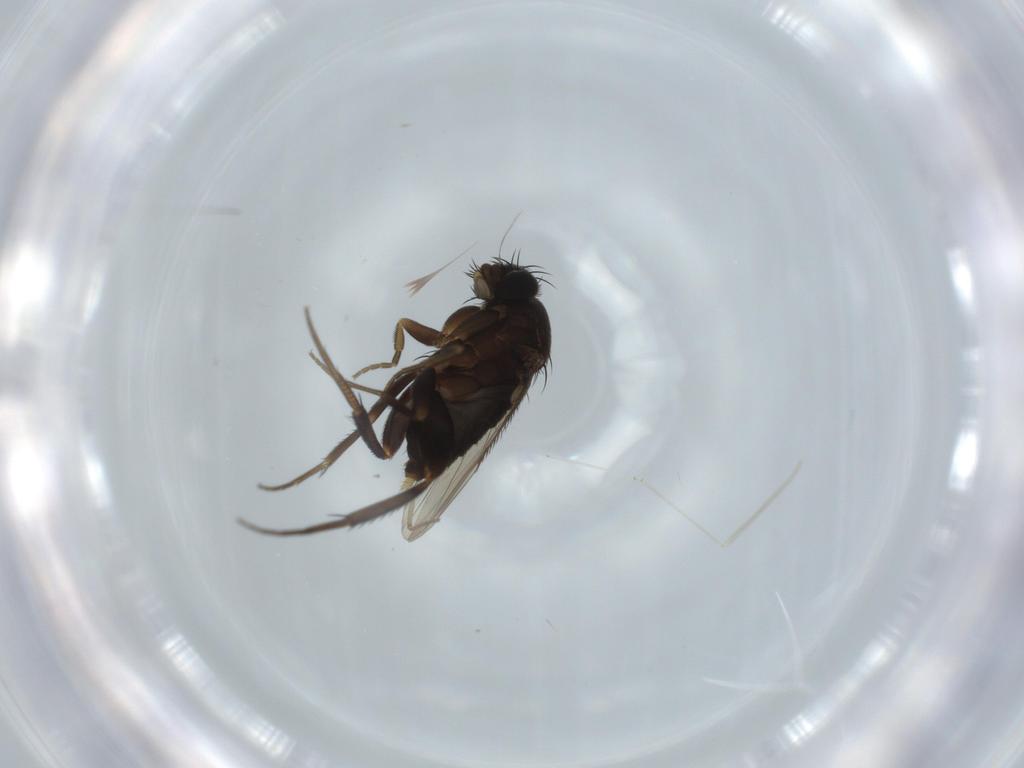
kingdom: Animalia
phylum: Arthropoda
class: Insecta
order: Diptera
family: Phoridae
